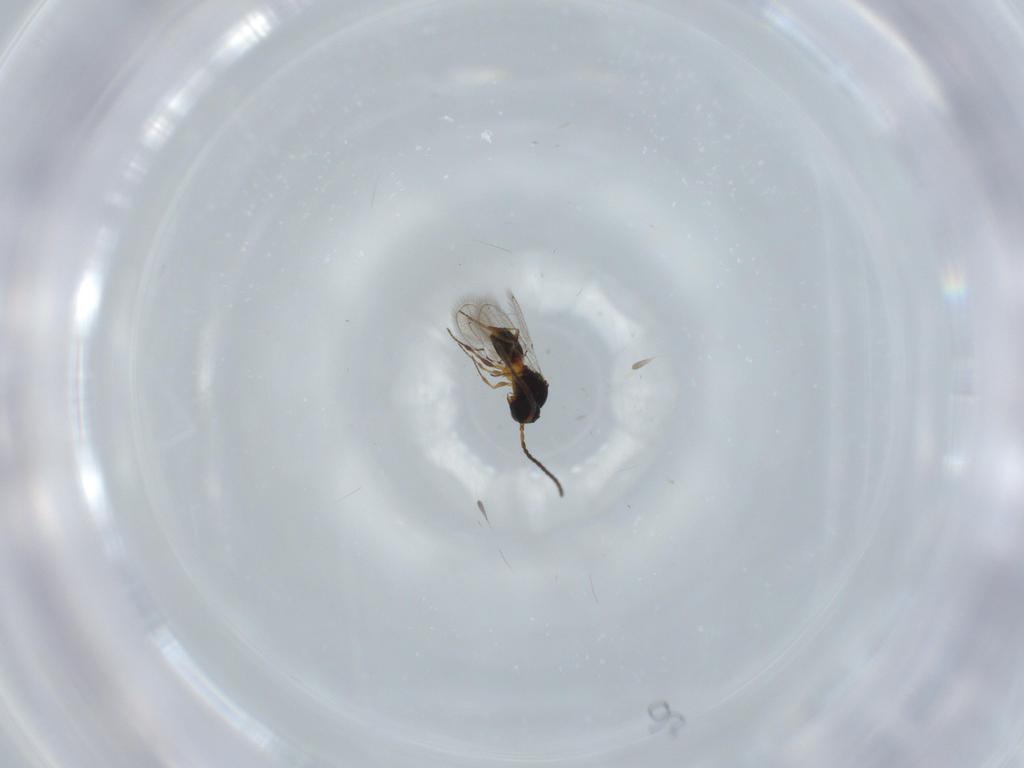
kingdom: Animalia
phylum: Arthropoda
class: Insecta
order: Hymenoptera
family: Figitidae
